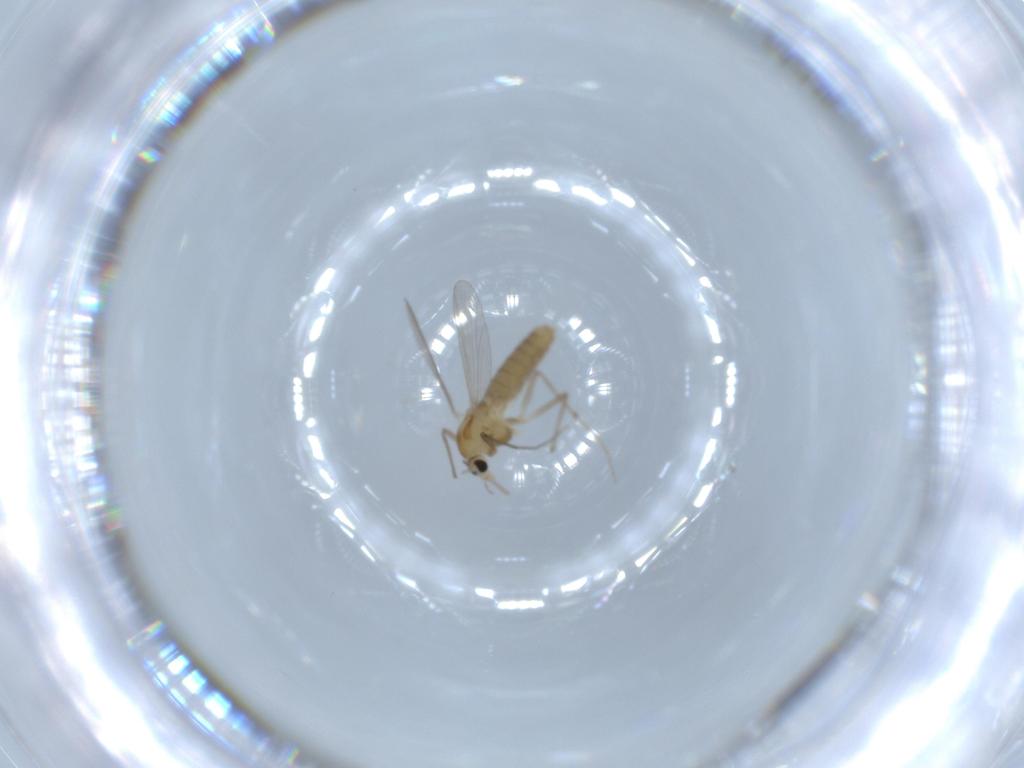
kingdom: Animalia
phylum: Arthropoda
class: Insecta
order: Diptera
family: Chironomidae
